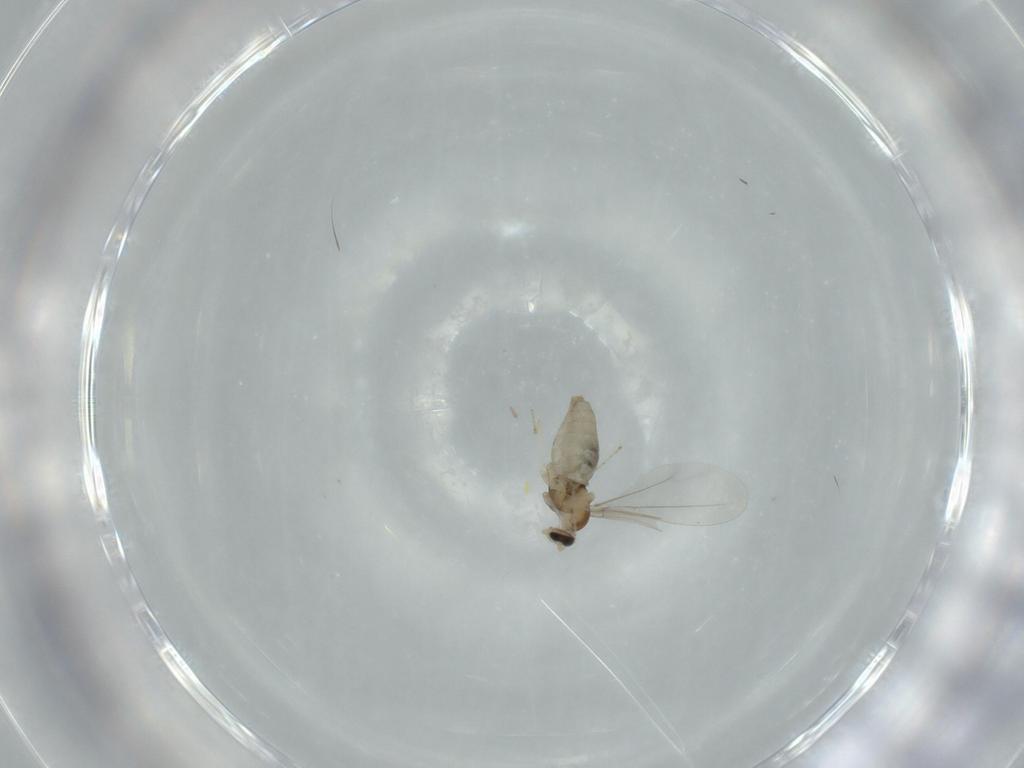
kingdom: Animalia
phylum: Arthropoda
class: Insecta
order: Diptera
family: Cecidomyiidae
